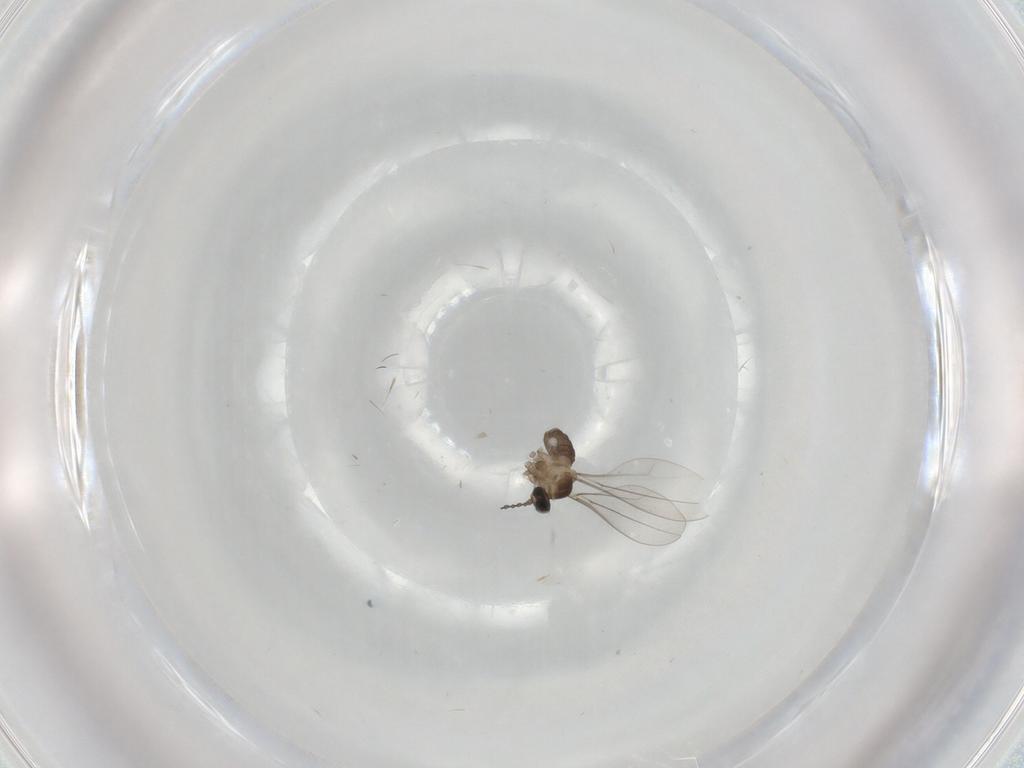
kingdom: Animalia
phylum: Arthropoda
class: Insecta
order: Diptera
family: Cecidomyiidae
